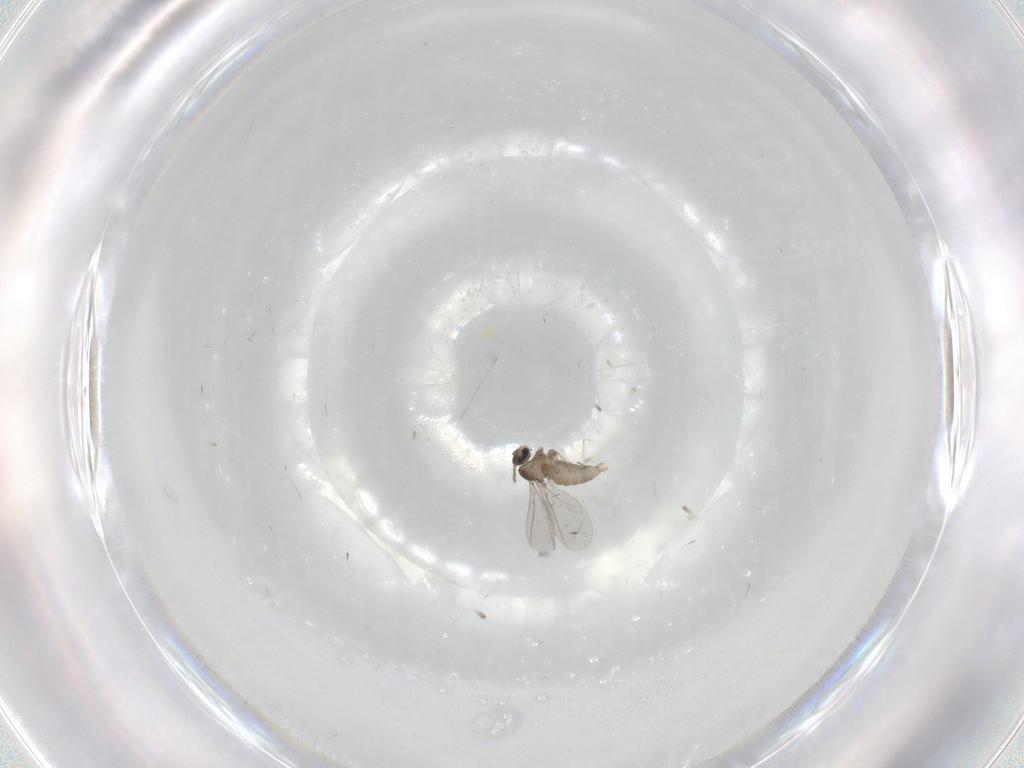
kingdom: Animalia
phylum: Arthropoda
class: Insecta
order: Diptera
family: Cecidomyiidae
